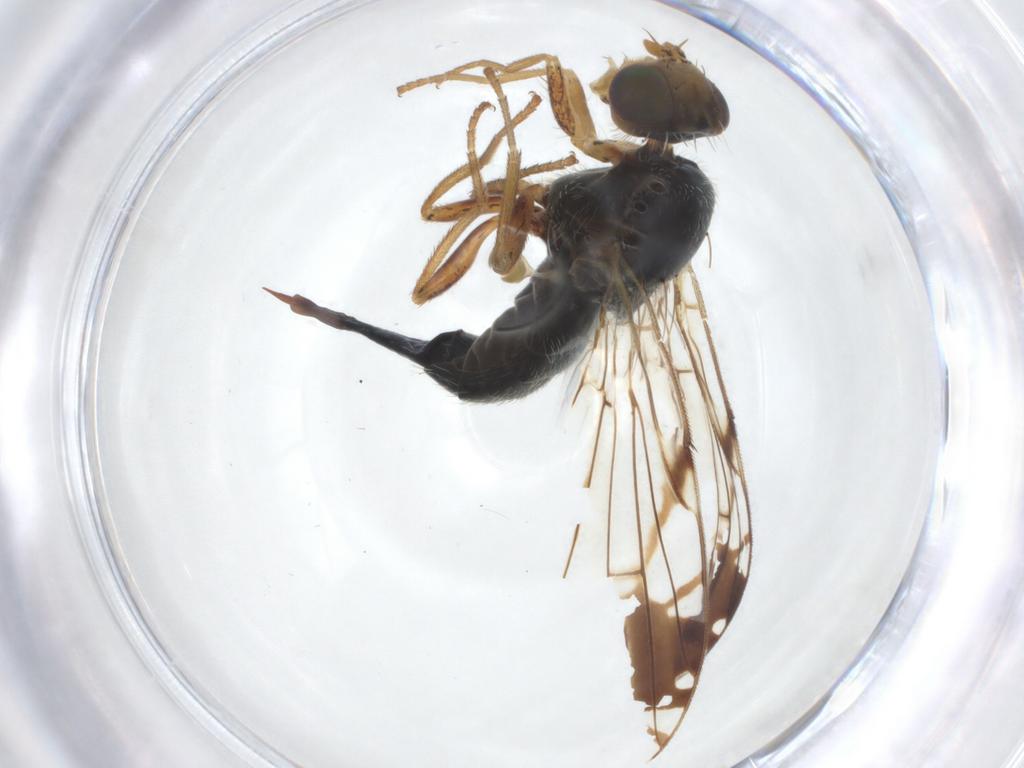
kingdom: Animalia
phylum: Arthropoda
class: Insecta
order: Diptera
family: Tephritidae
